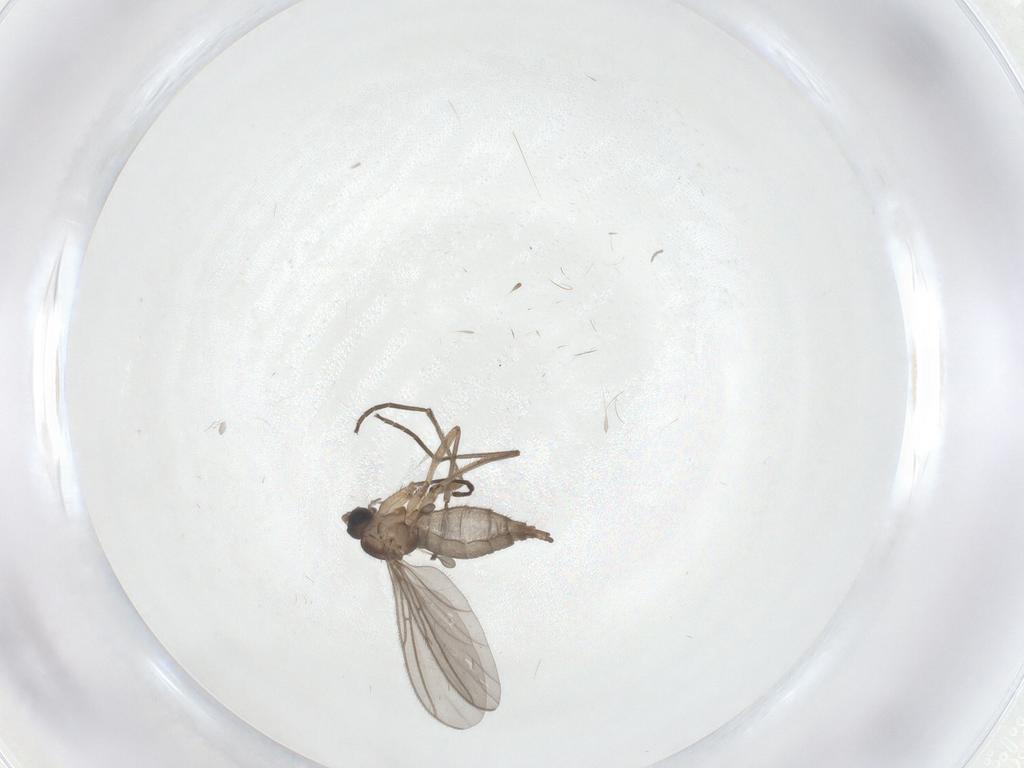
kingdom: Animalia
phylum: Arthropoda
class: Insecta
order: Diptera
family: Sciaridae
